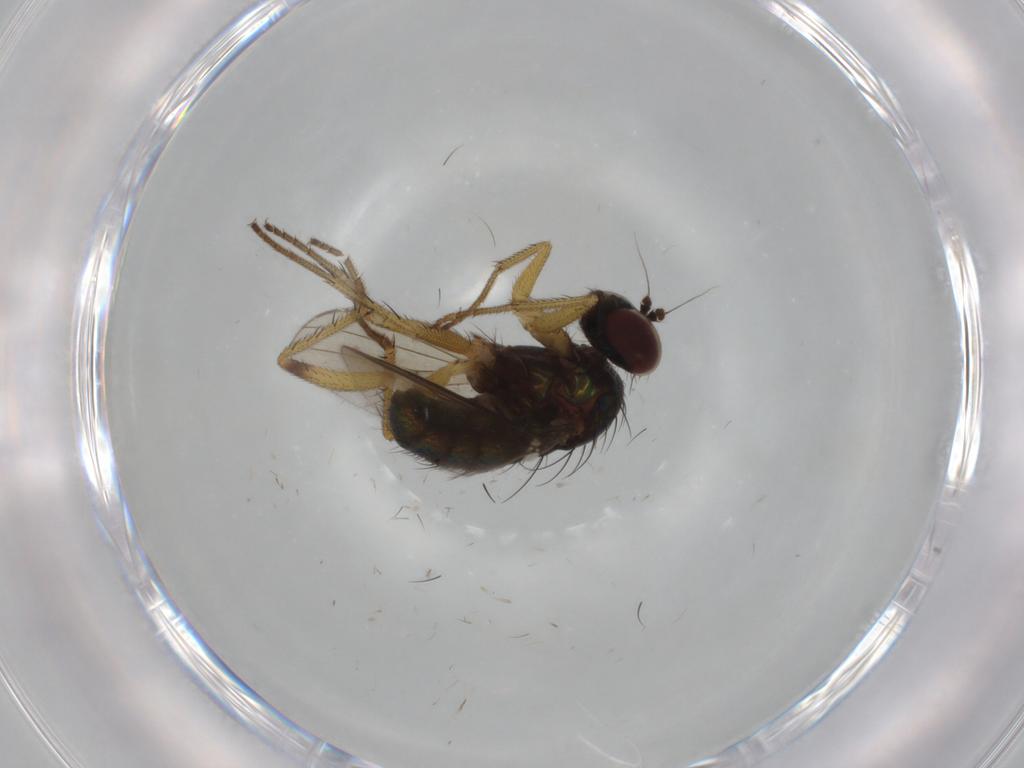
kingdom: Animalia
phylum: Arthropoda
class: Insecta
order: Diptera
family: Dolichopodidae
